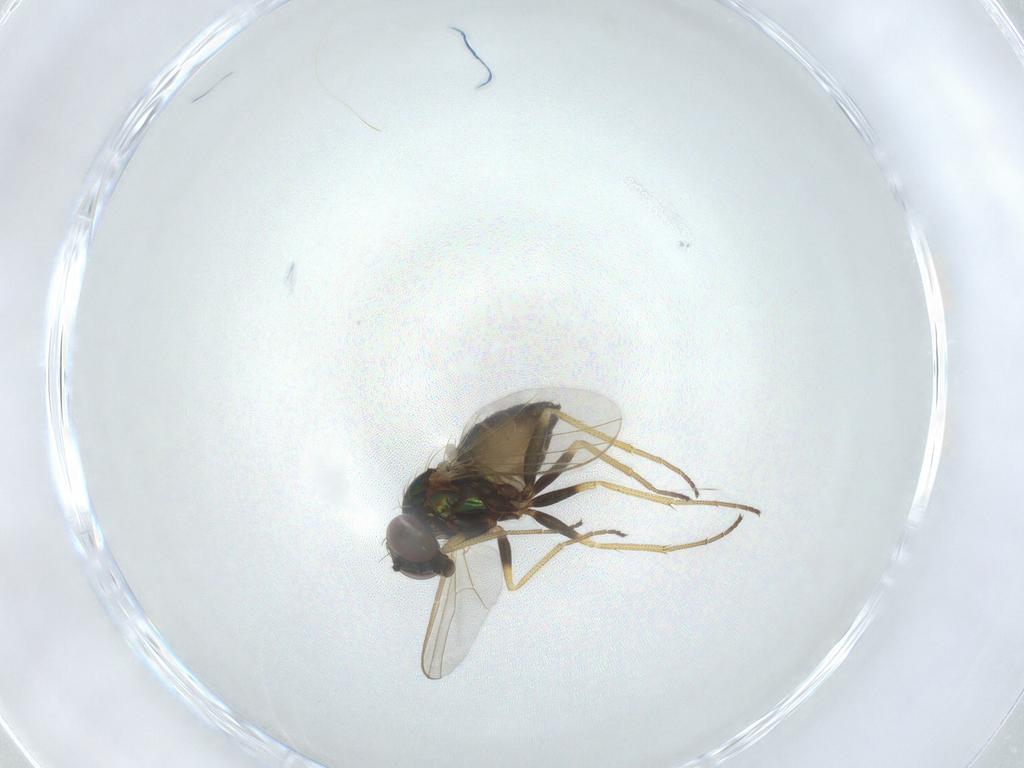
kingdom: Animalia
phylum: Arthropoda
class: Insecta
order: Diptera
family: Dolichopodidae
